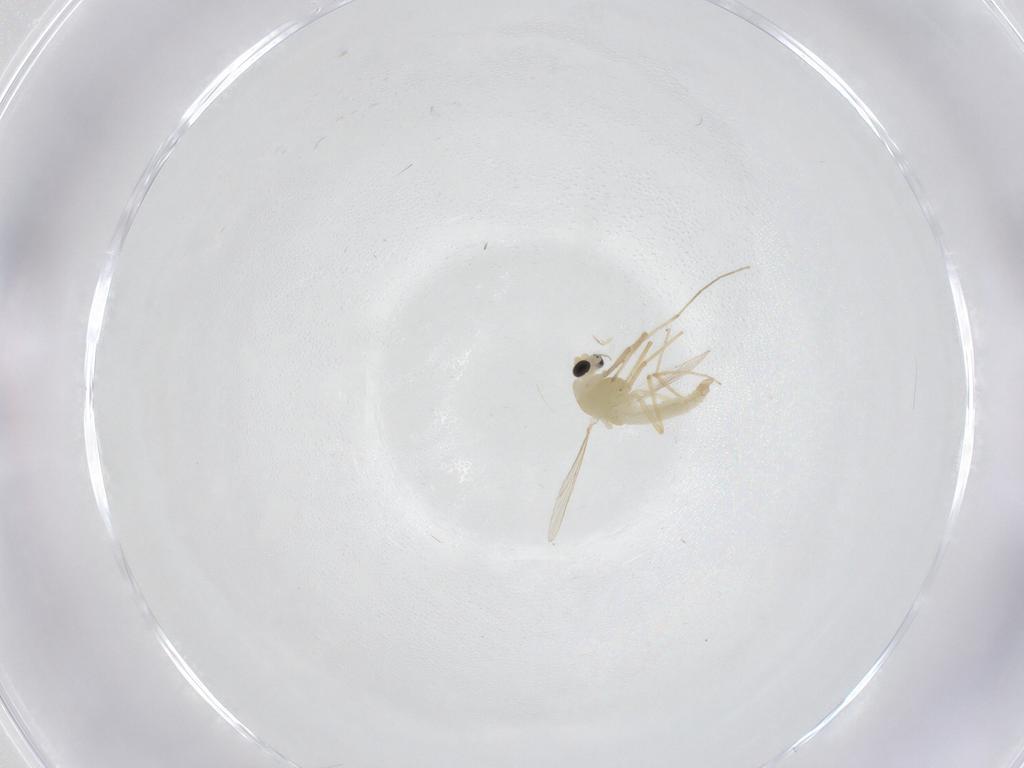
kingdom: Animalia
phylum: Arthropoda
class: Insecta
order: Diptera
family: Chironomidae
